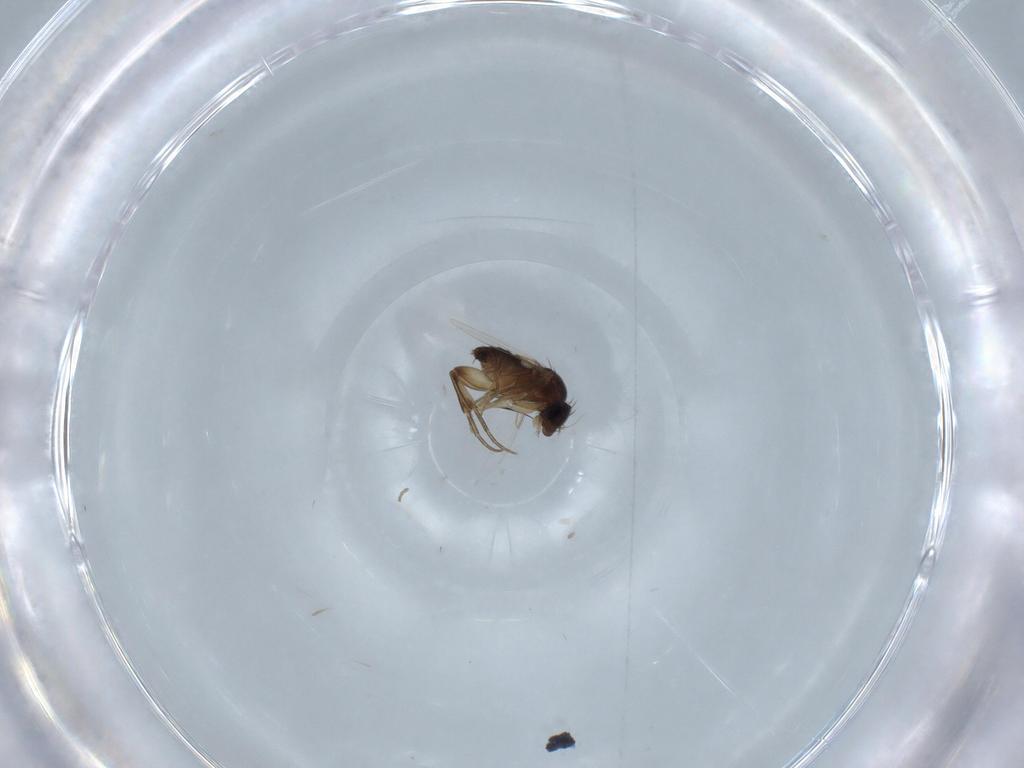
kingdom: Animalia
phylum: Arthropoda
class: Insecta
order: Diptera
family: Phoridae
